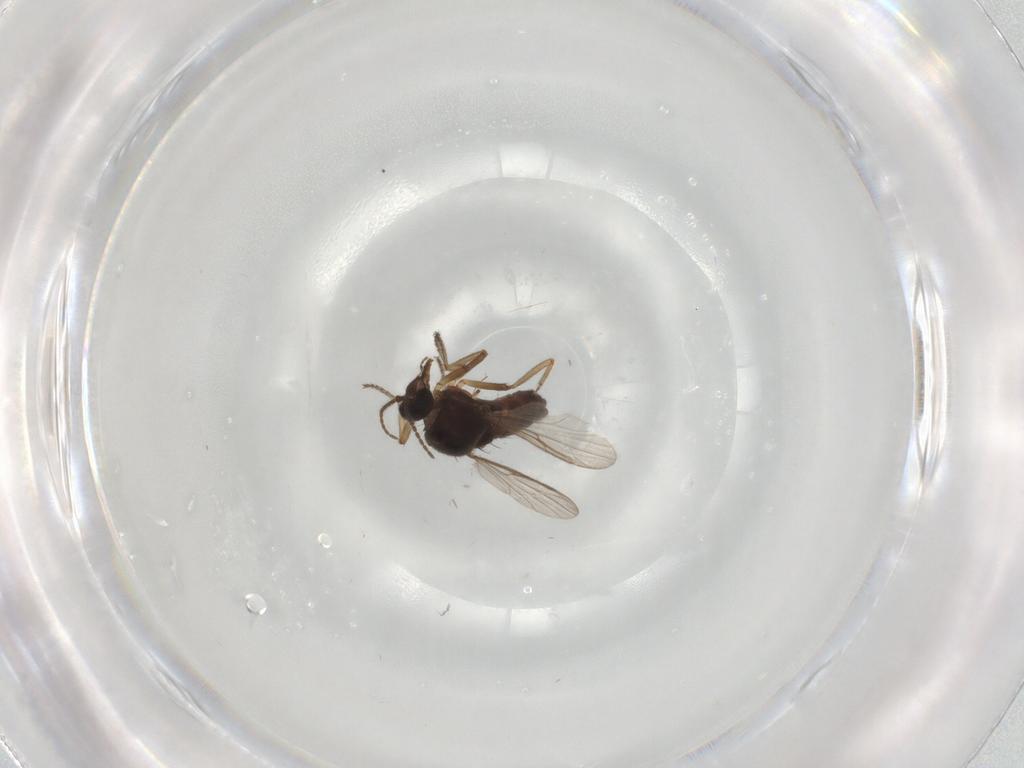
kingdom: Animalia
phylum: Arthropoda
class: Insecta
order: Diptera
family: Ceratopogonidae
